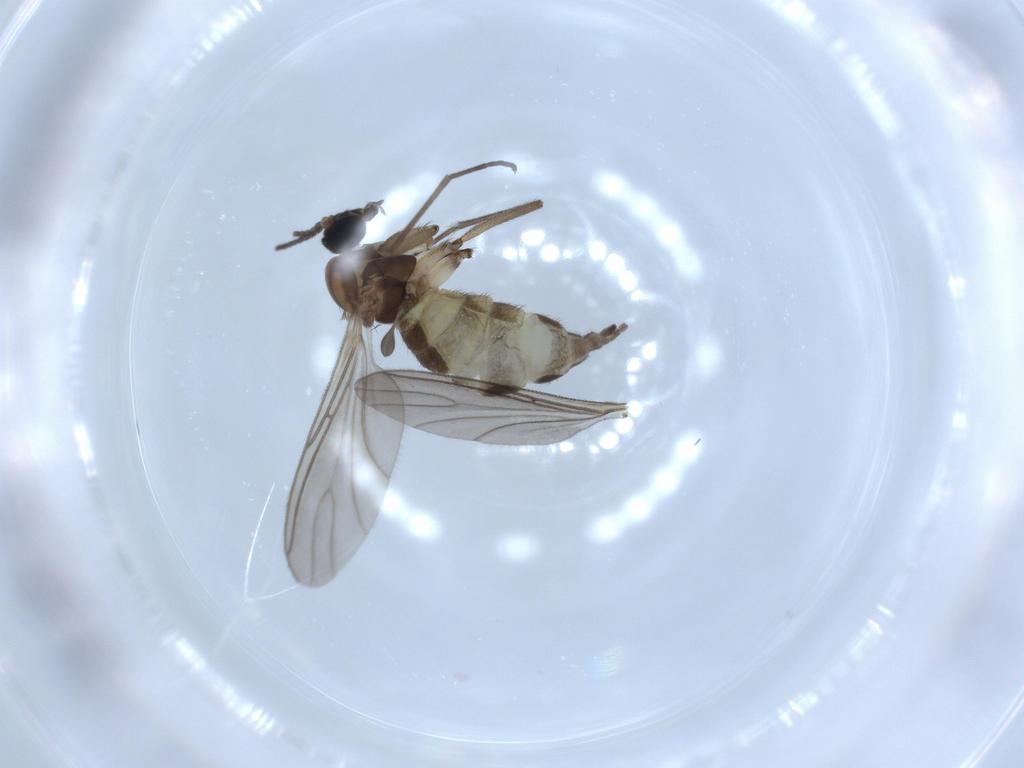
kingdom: Animalia
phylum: Arthropoda
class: Insecta
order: Diptera
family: Sciaridae
